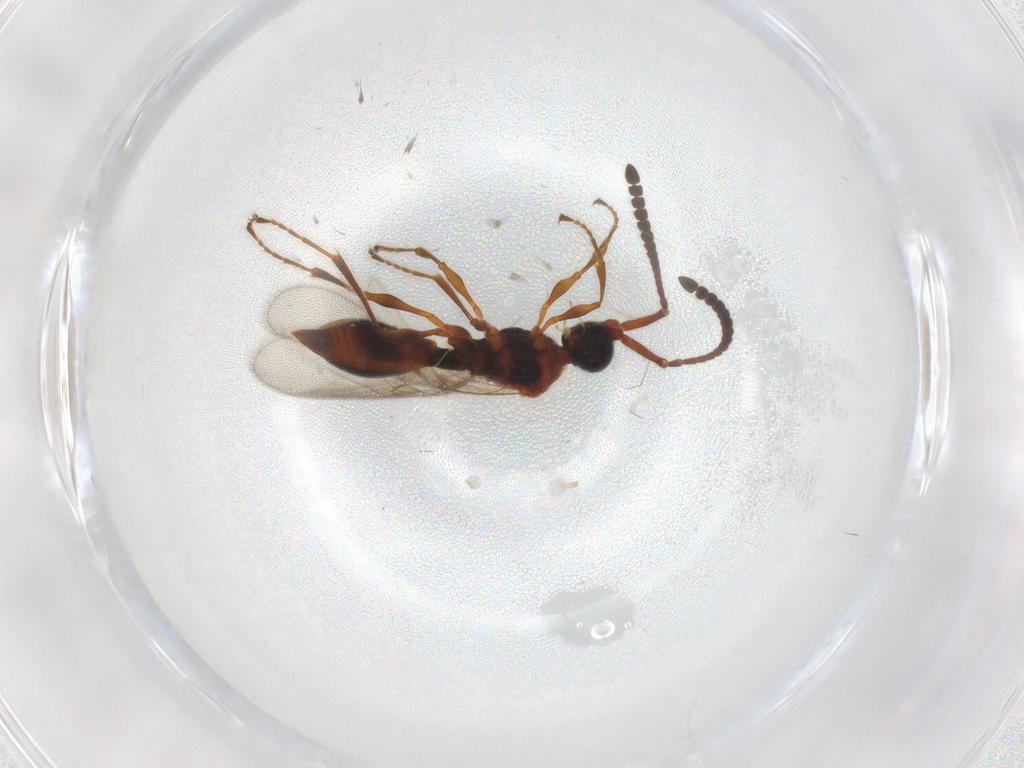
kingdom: Animalia
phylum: Arthropoda
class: Insecta
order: Hymenoptera
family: Diapriidae
